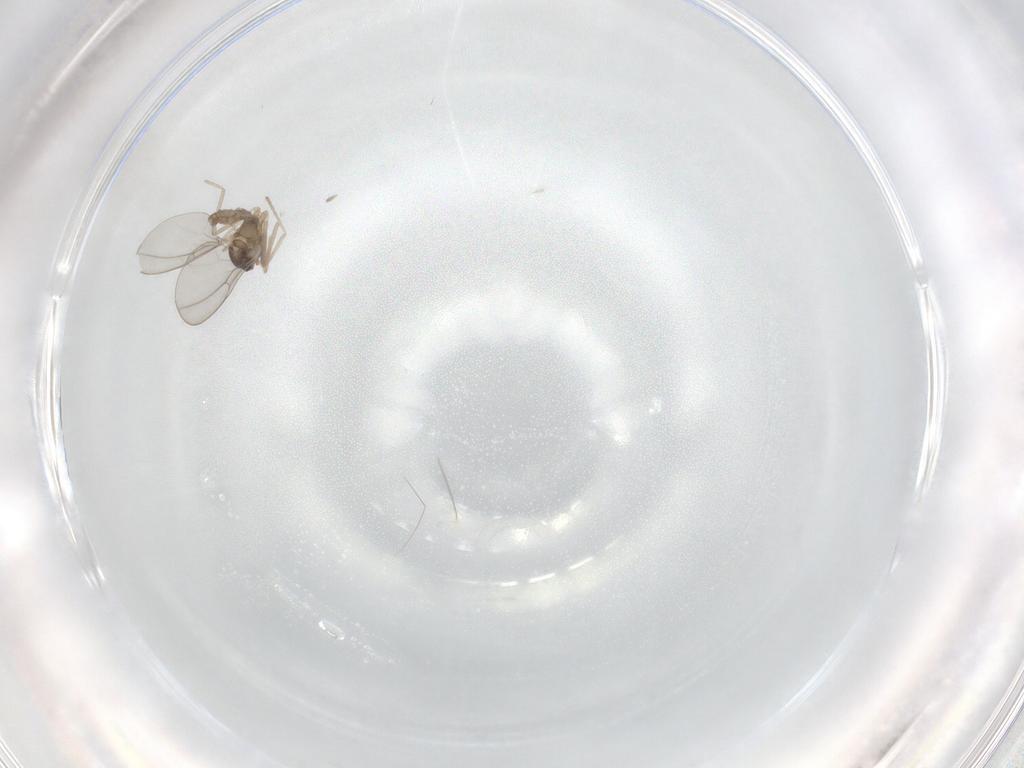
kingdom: Animalia
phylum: Arthropoda
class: Insecta
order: Diptera
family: Cecidomyiidae
